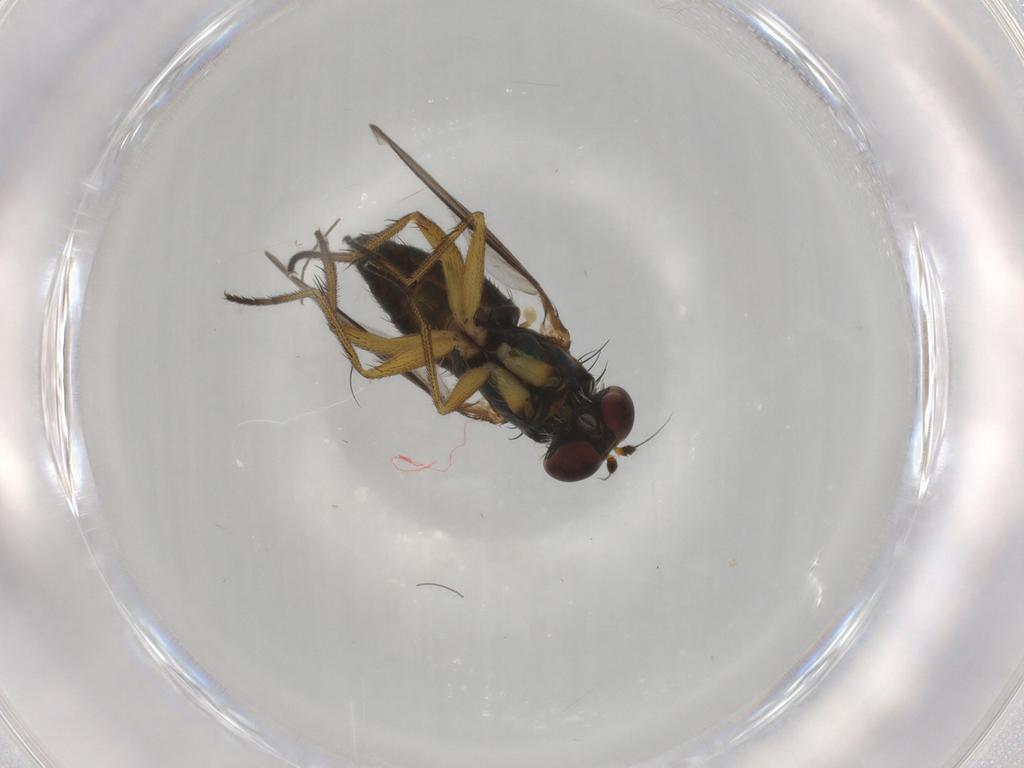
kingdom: Animalia
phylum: Arthropoda
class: Insecta
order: Diptera
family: Dolichopodidae
